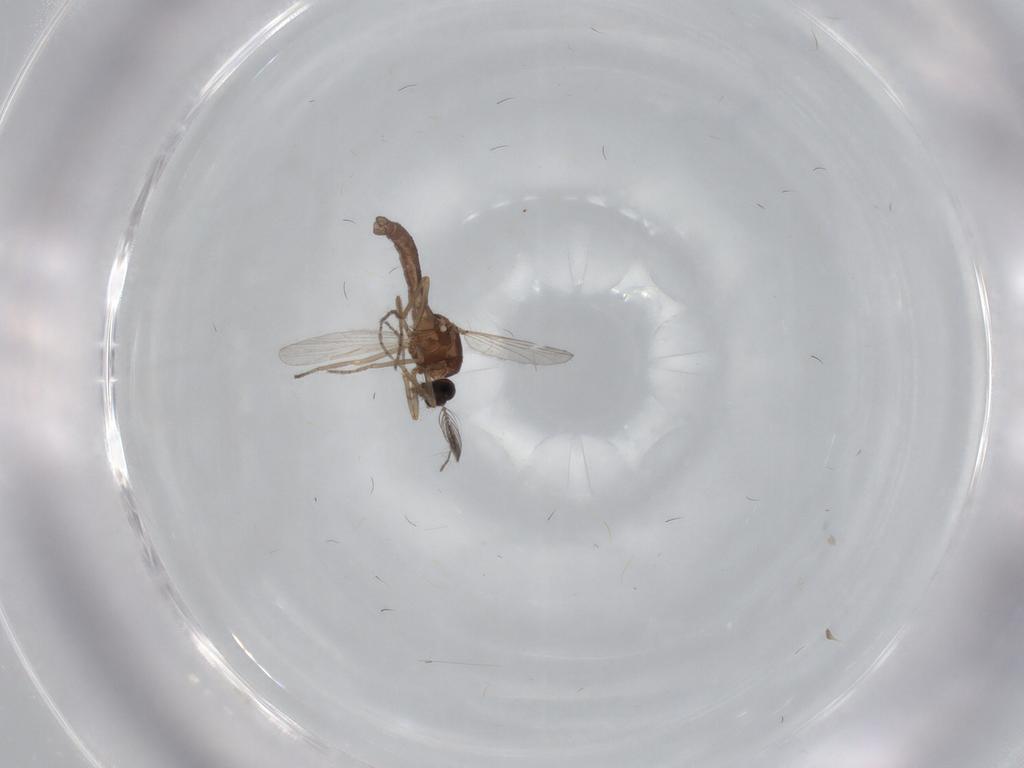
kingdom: Animalia
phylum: Arthropoda
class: Insecta
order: Diptera
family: Ceratopogonidae
